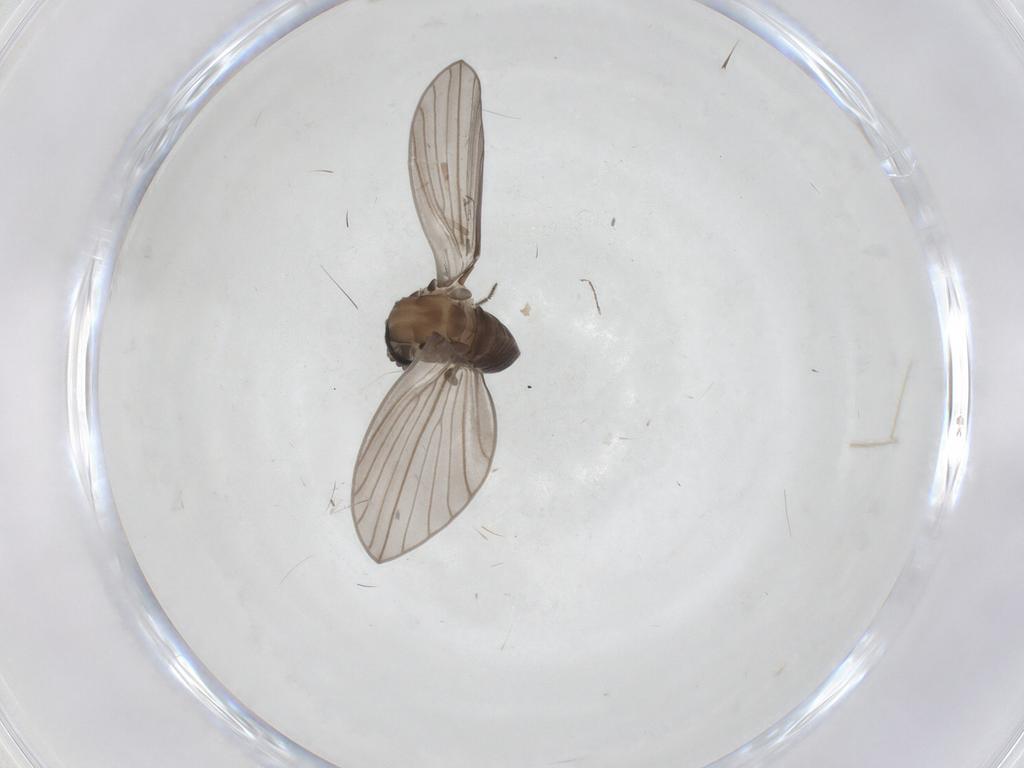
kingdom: Animalia
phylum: Arthropoda
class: Insecta
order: Diptera
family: Psychodidae
